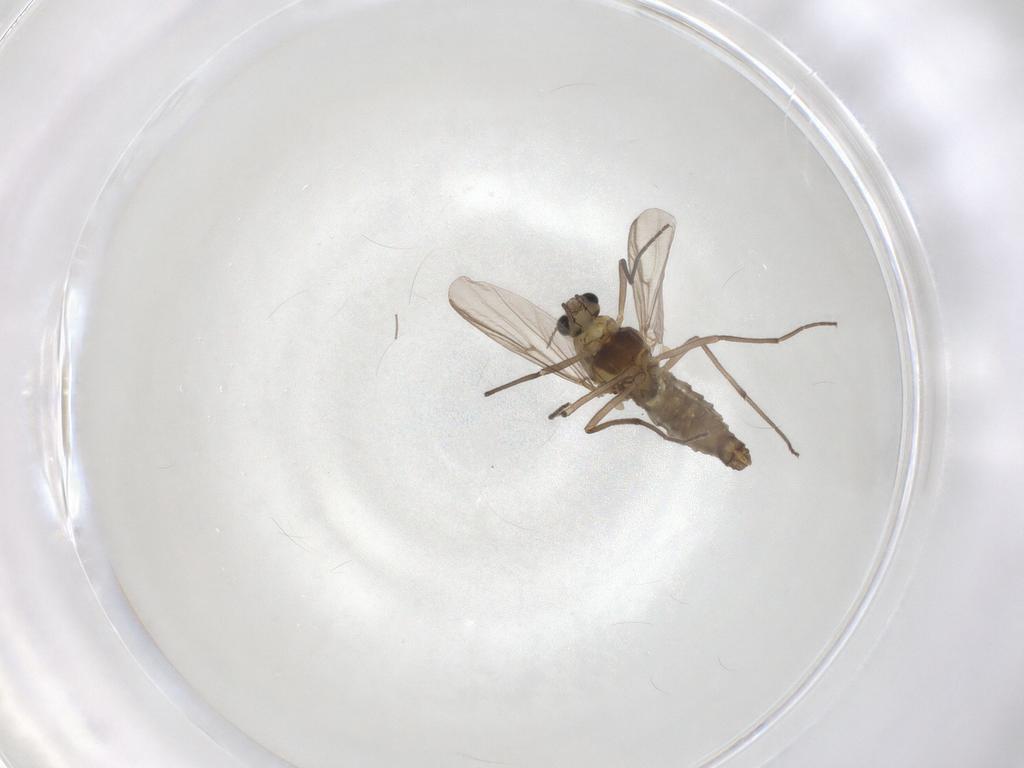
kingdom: Animalia
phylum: Arthropoda
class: Insecta
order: Diptera
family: Chironomidae
